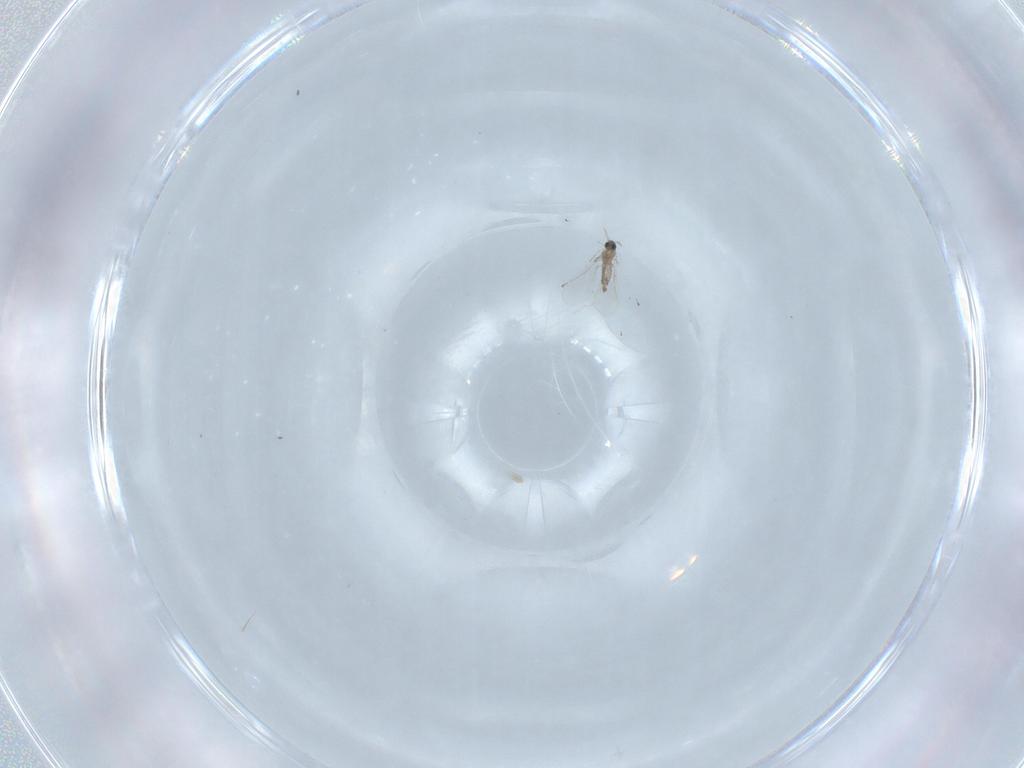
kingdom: Animalia
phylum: Arthropoda
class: Insecta
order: Diptera
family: Cecidomyiidae
